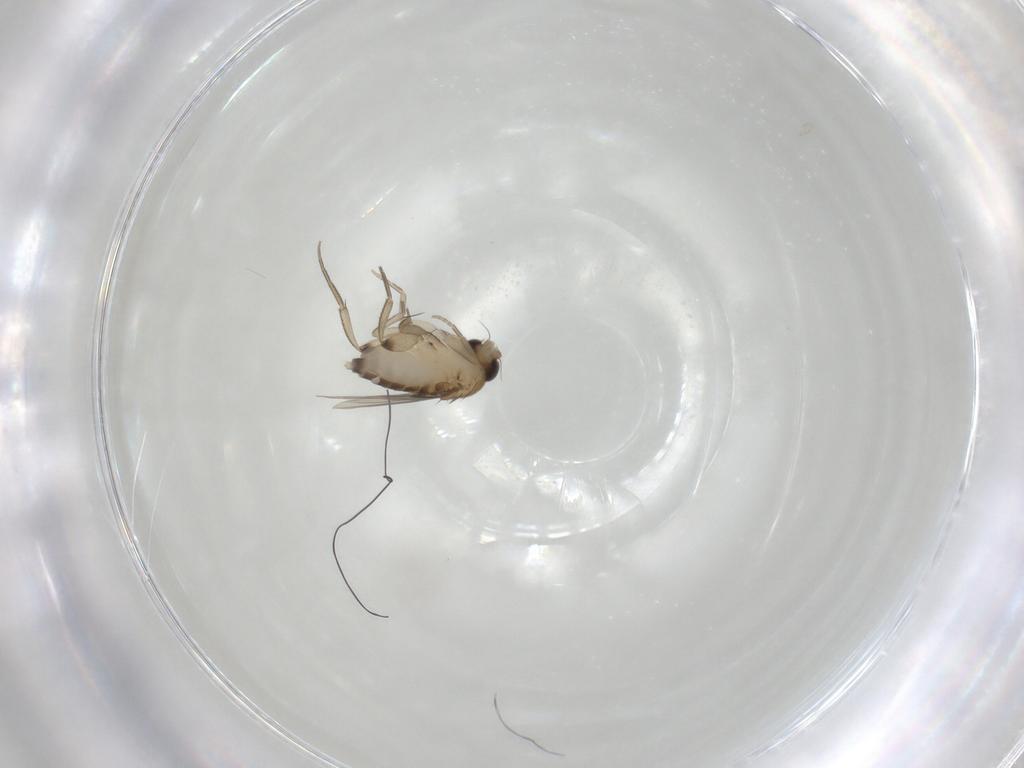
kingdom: Animalia
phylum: Arthropoda
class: Insecta
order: Diptera
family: Phoridae
